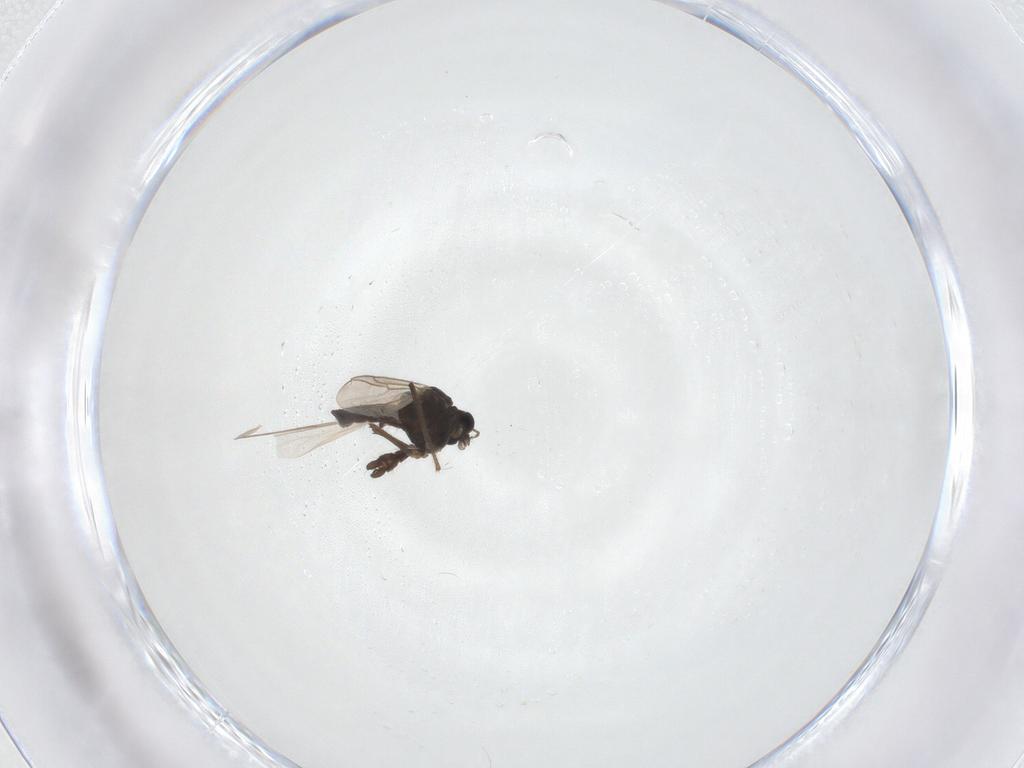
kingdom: Animalia
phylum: Arthropoda
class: Insecta
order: Diptera
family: Chironomidae
